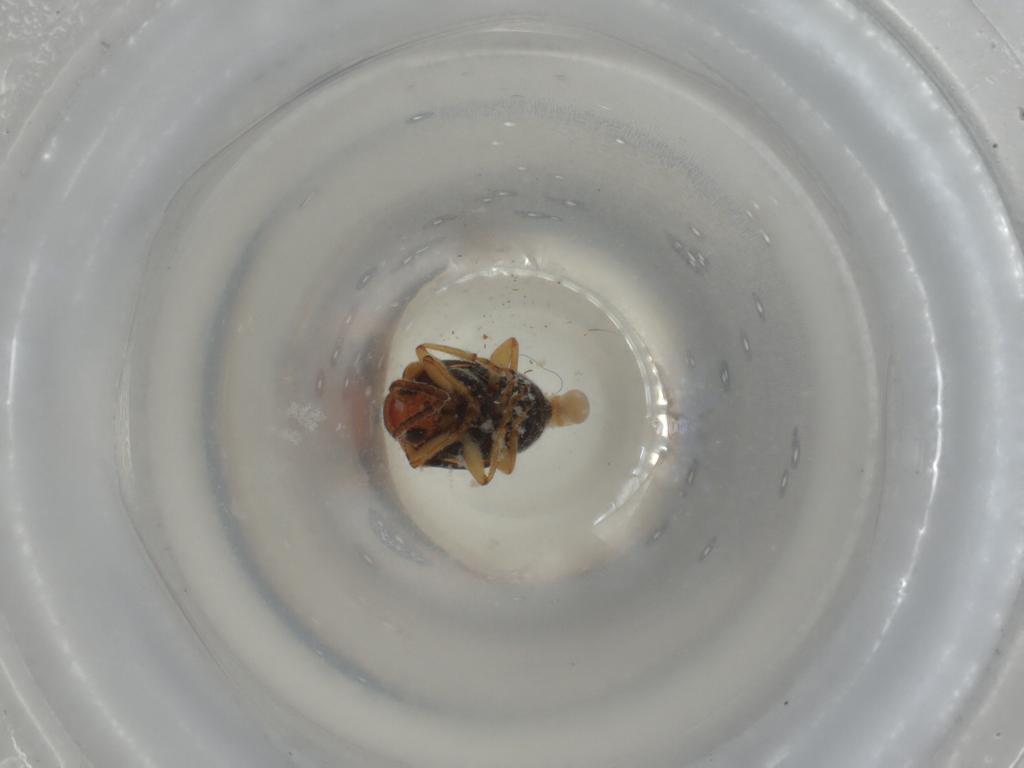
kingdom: Animalia
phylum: Arthropoda
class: Insecta
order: Coleoptera
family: Chrysomelidae
